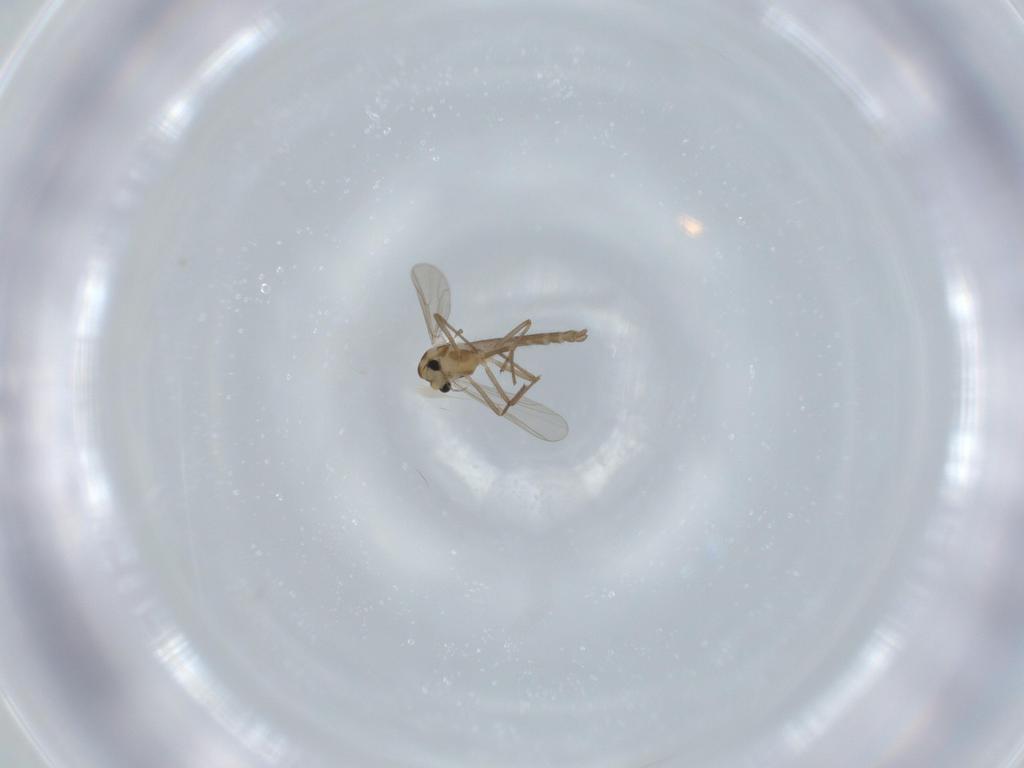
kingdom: Animalia
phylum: Arthropoda
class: Insecta
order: Diptera
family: Chironomidae
